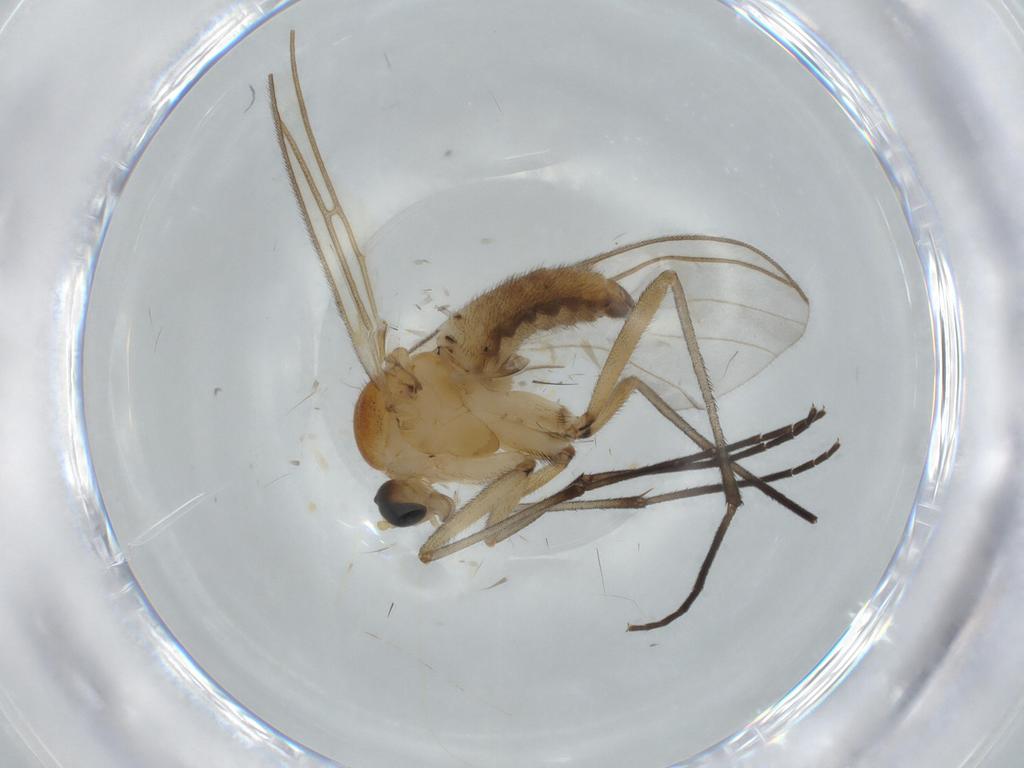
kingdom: Animalia
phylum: Arthropoda
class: Insecta
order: Diptera
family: Sciaridae
